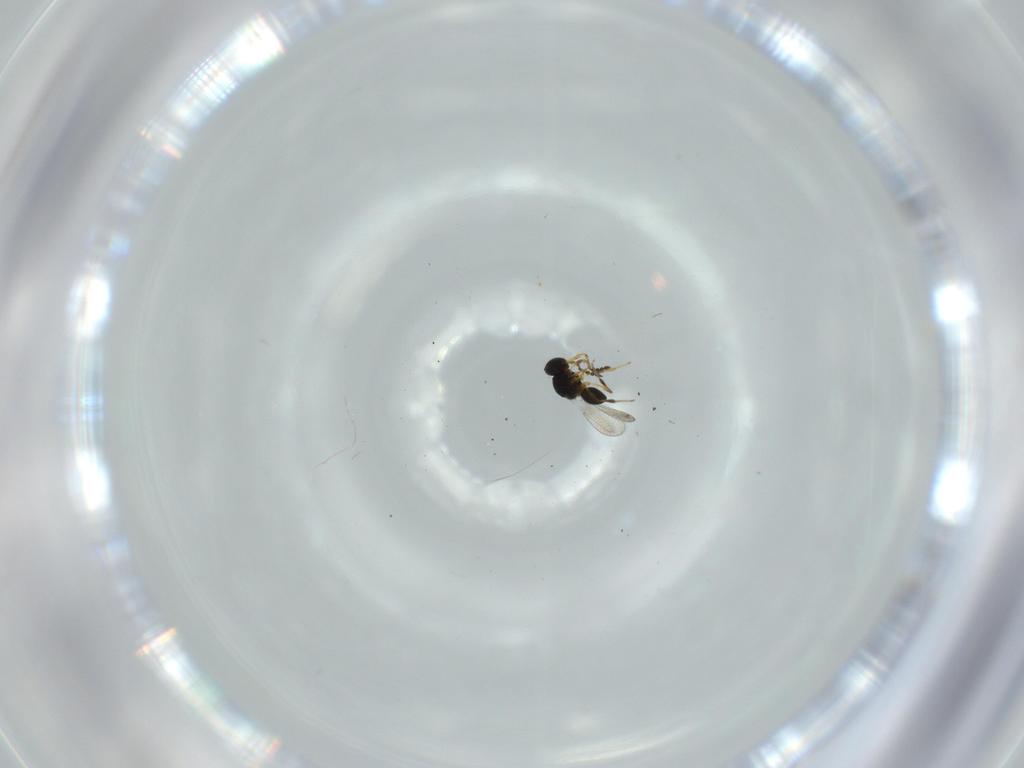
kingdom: Animalia
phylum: Arthropoda
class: Insecta
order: Hymenoptera
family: Platygastridae
